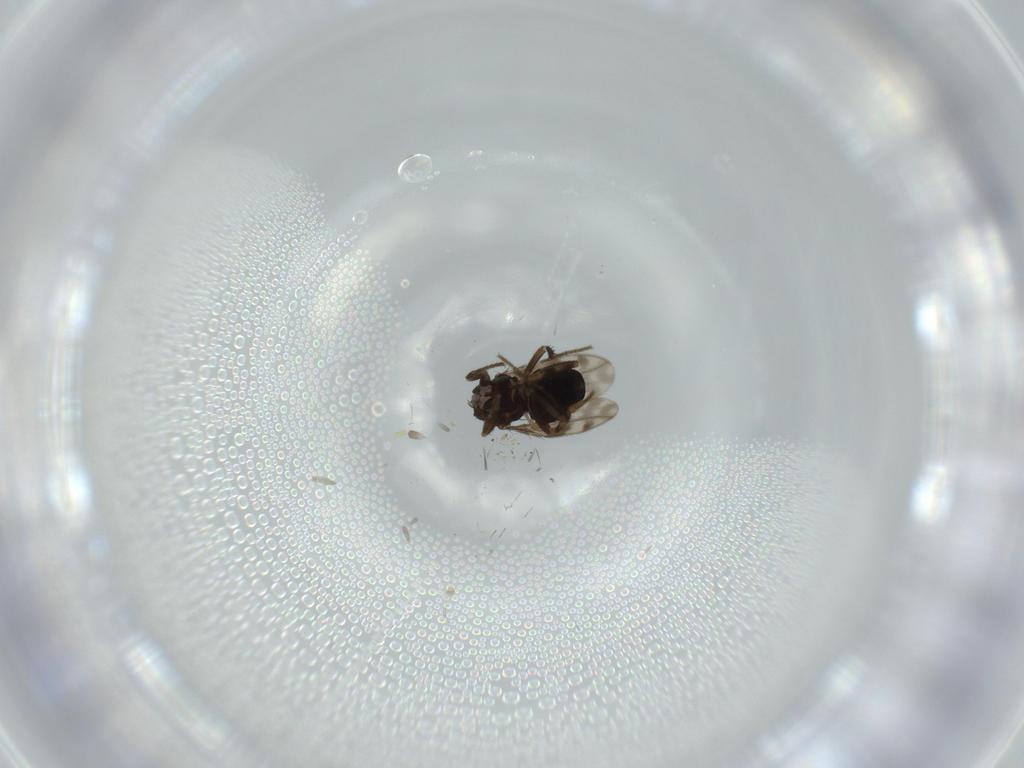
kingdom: Animalia
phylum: Arthropoda
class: Insecta
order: Diptera
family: Sphaeroceridae
